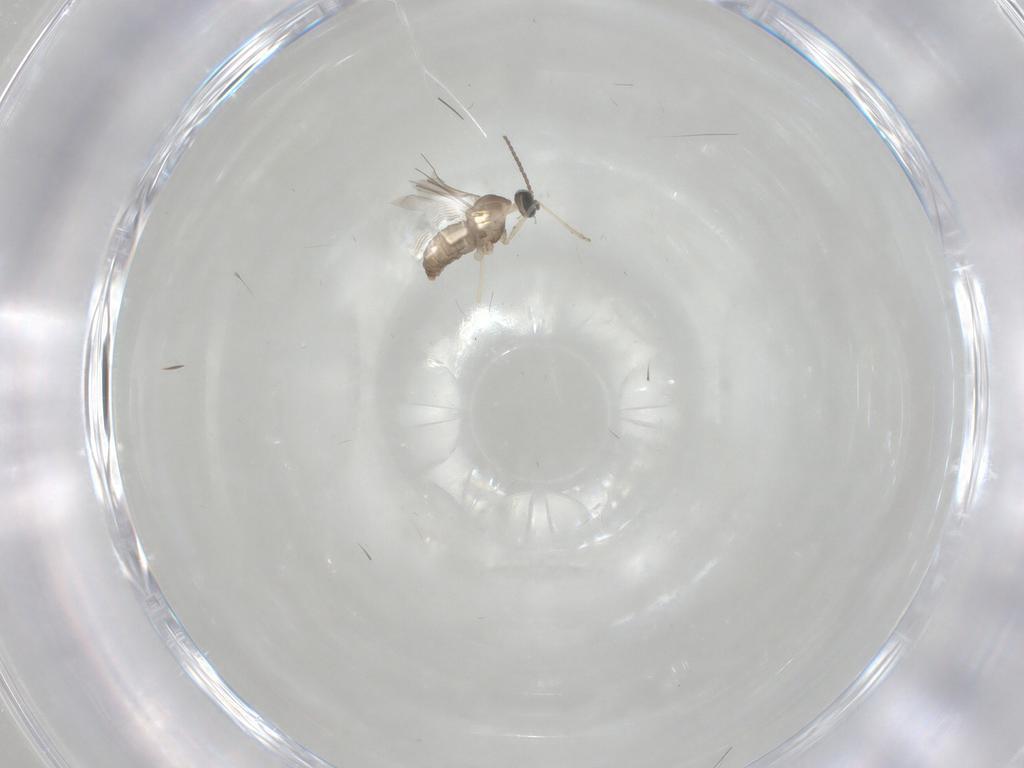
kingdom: Animalia
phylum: Arthropoda
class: Insecta
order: Diptera
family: Cecidomyiidae
